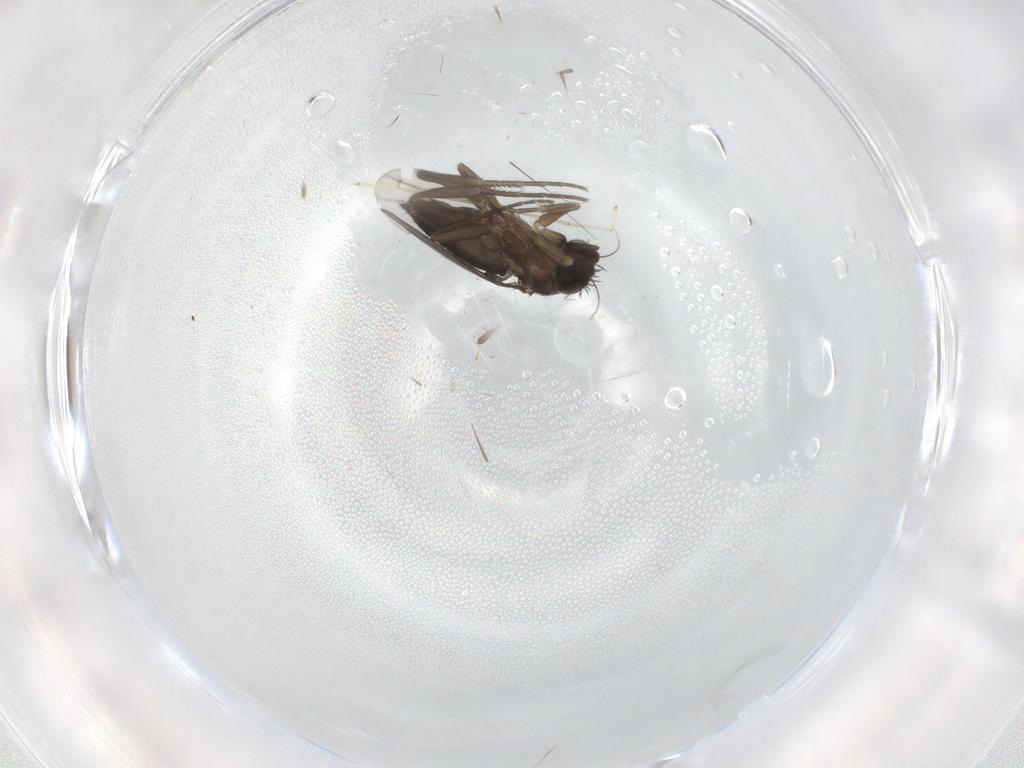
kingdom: Animalia
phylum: Arthropoda
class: Insecta
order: Diptera
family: Phoridae
